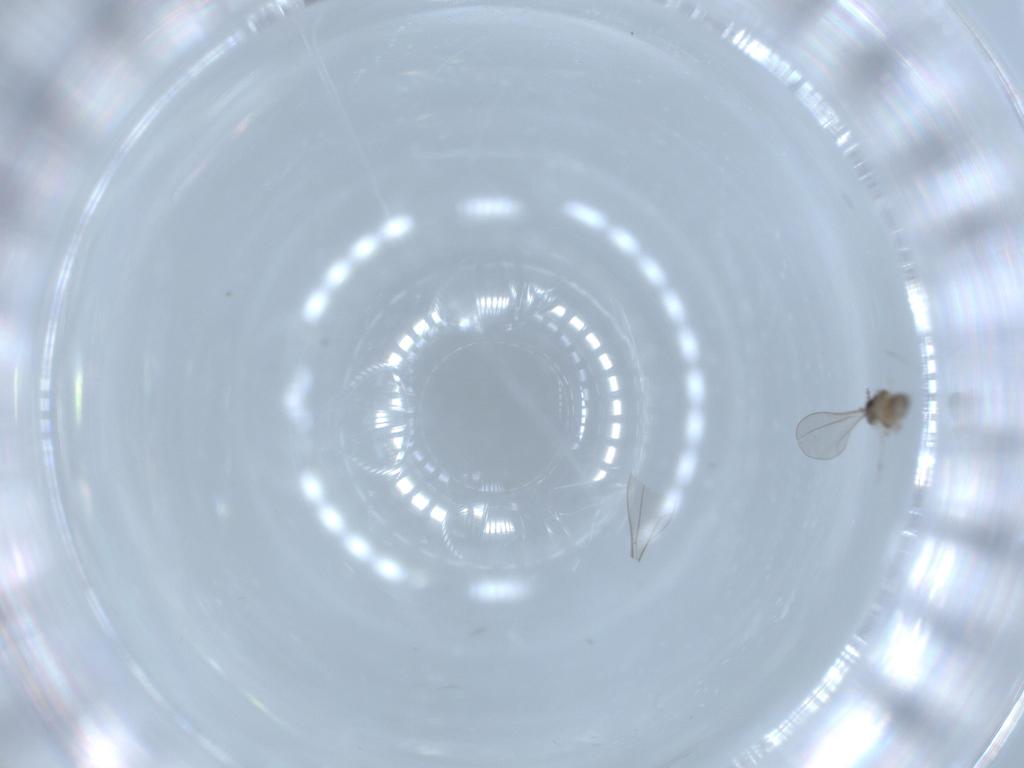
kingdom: Animalia
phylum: Arthropoda
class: Insecta
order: Diptera
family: Cecidomyiidae
